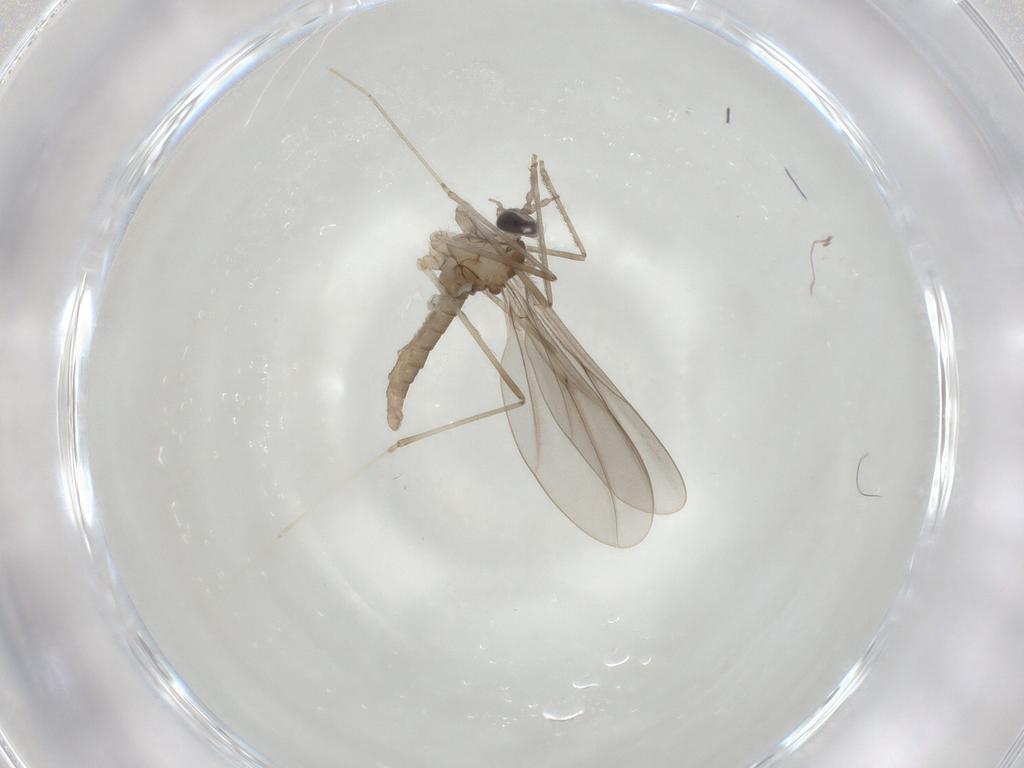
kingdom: Animalia
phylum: Arthropoda
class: Insecta
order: Diptera
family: Cecidomyiidae
